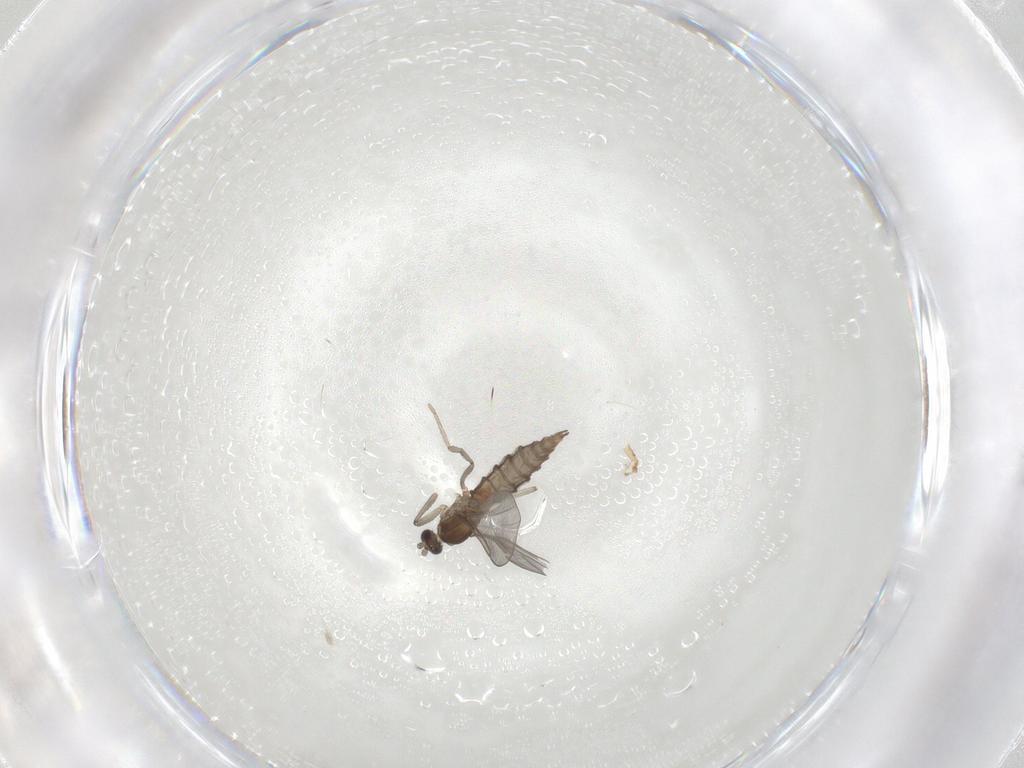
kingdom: Animalia
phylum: Arthropoda
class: Insecta
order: Diptera
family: Cecidomyiidae
